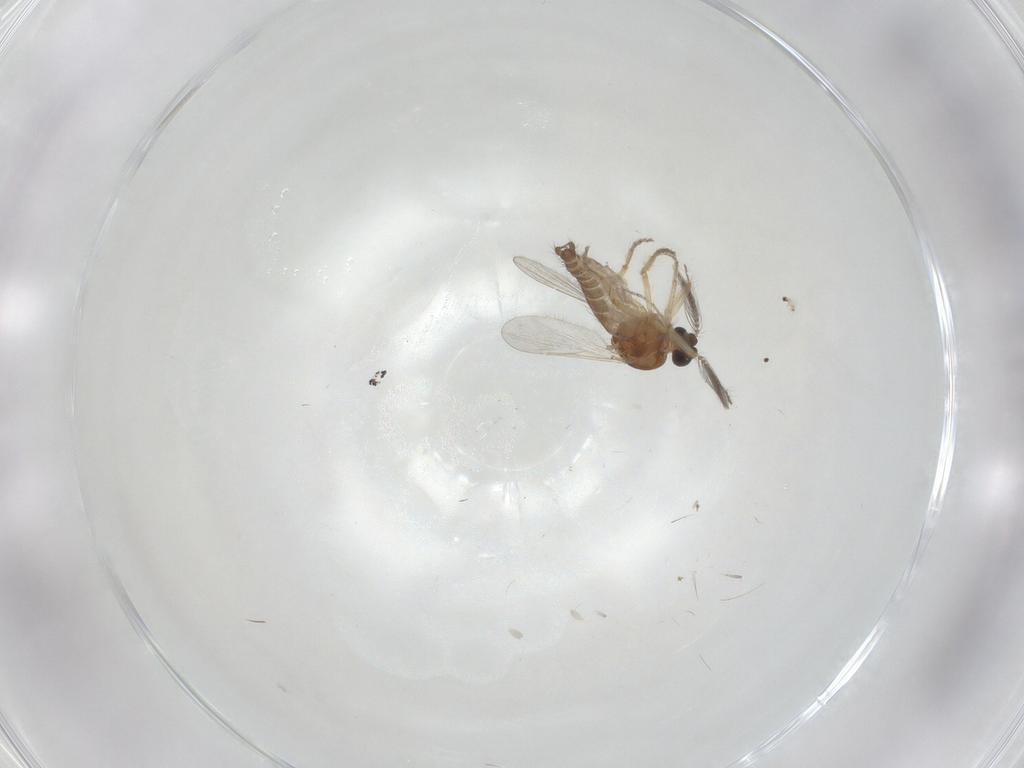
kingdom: Animalia
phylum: Arthropoda
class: Insecta
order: Diptera
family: Ceratopogonidae
